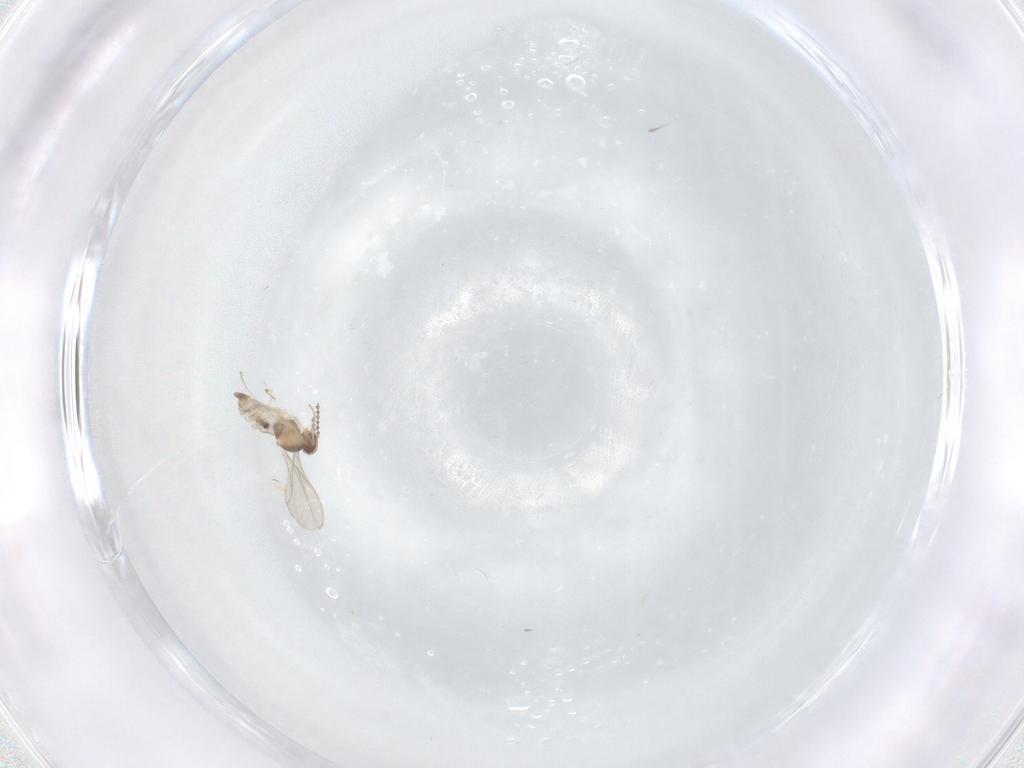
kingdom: Animalia
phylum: Arthropoda
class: Insecta
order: Diptera
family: Cecidomyiidae
